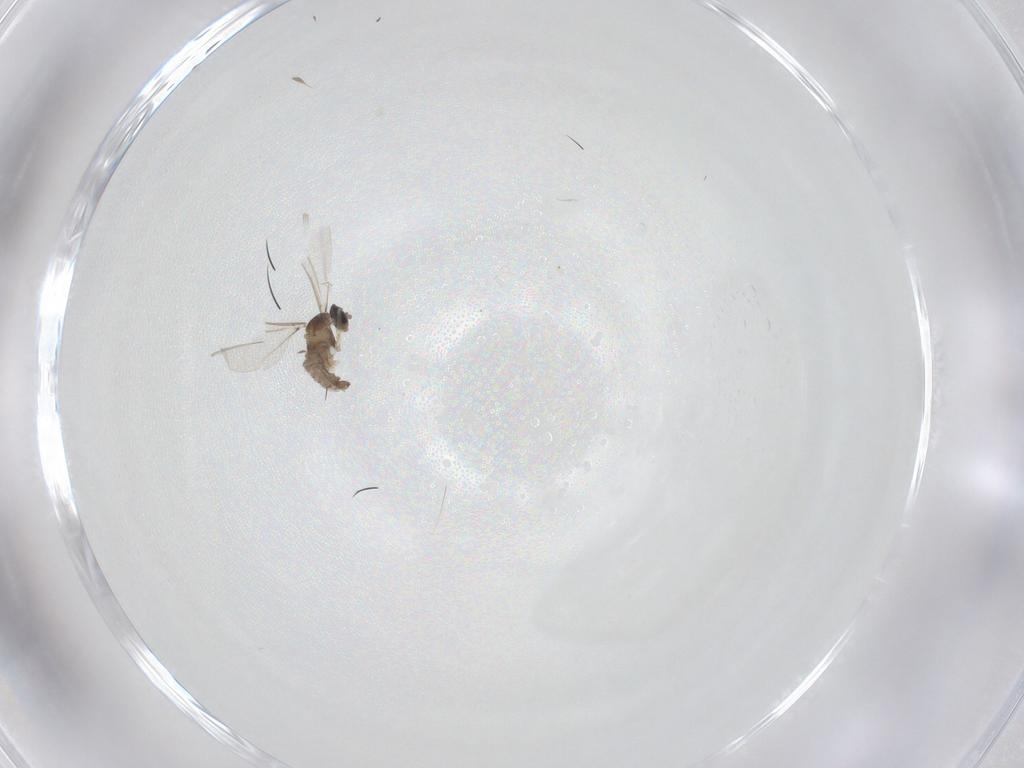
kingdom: Animalia
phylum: Arthropoda
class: Insecta
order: Diptera
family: Cecidomyiidae
